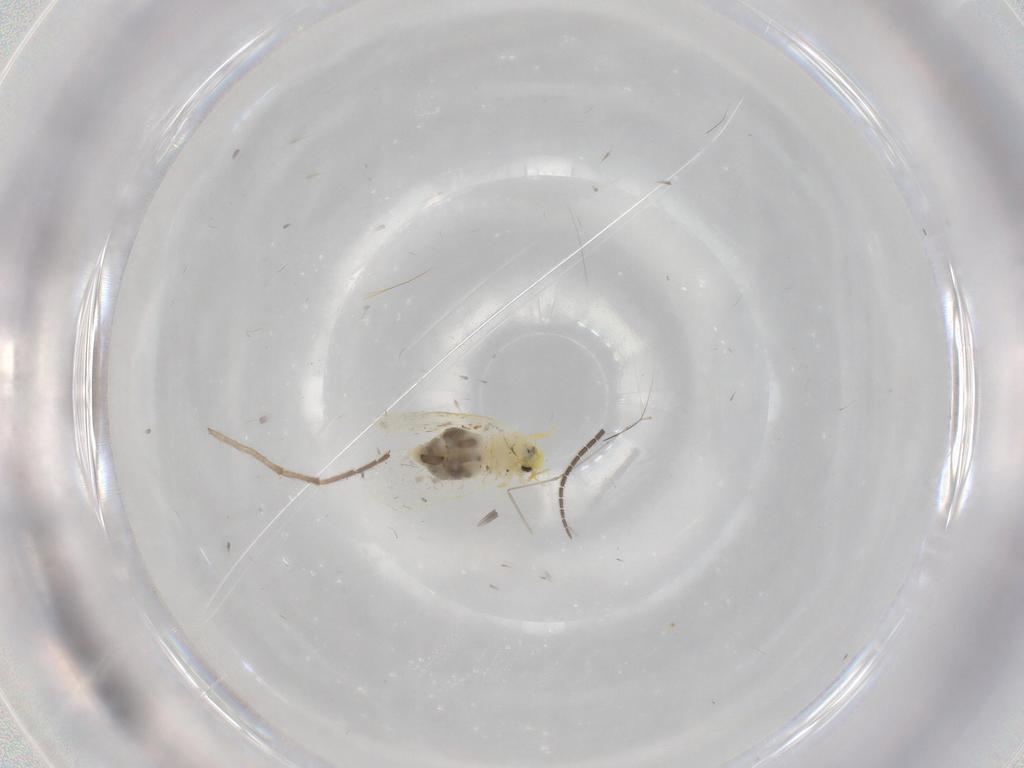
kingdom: Animalia
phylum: Arthropoda
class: Insecta
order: Hemiptera
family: Aleyrodidae
